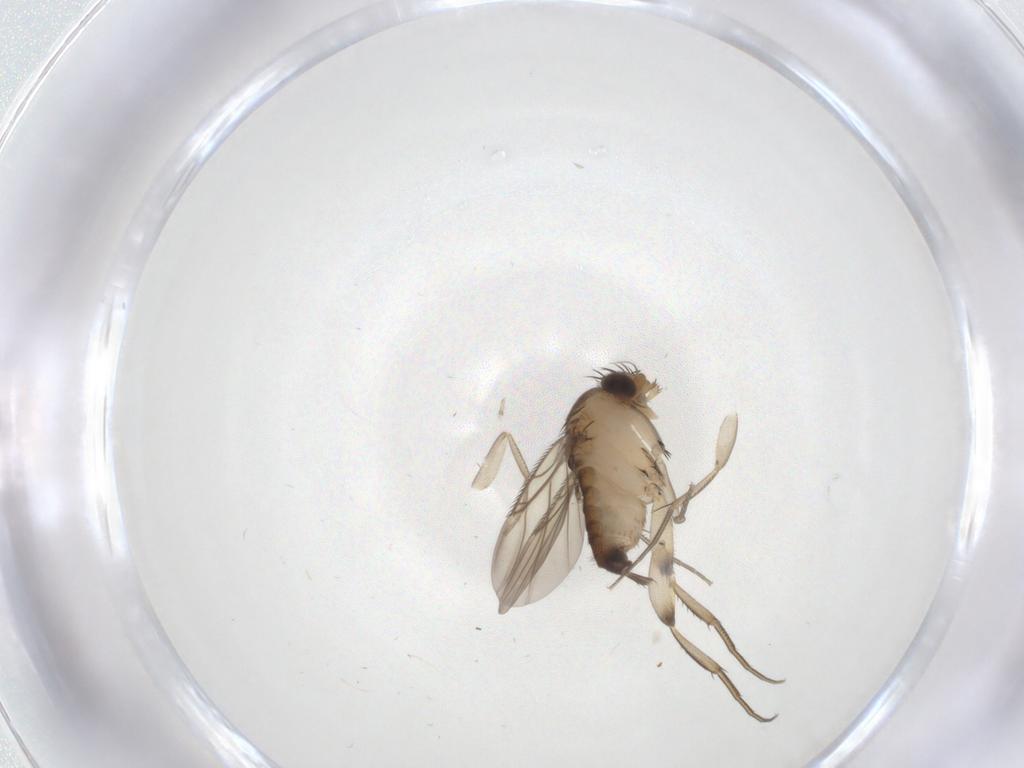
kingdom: Animalia
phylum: Arthropoda
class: Insecta
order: Diptera
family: Phoridae
